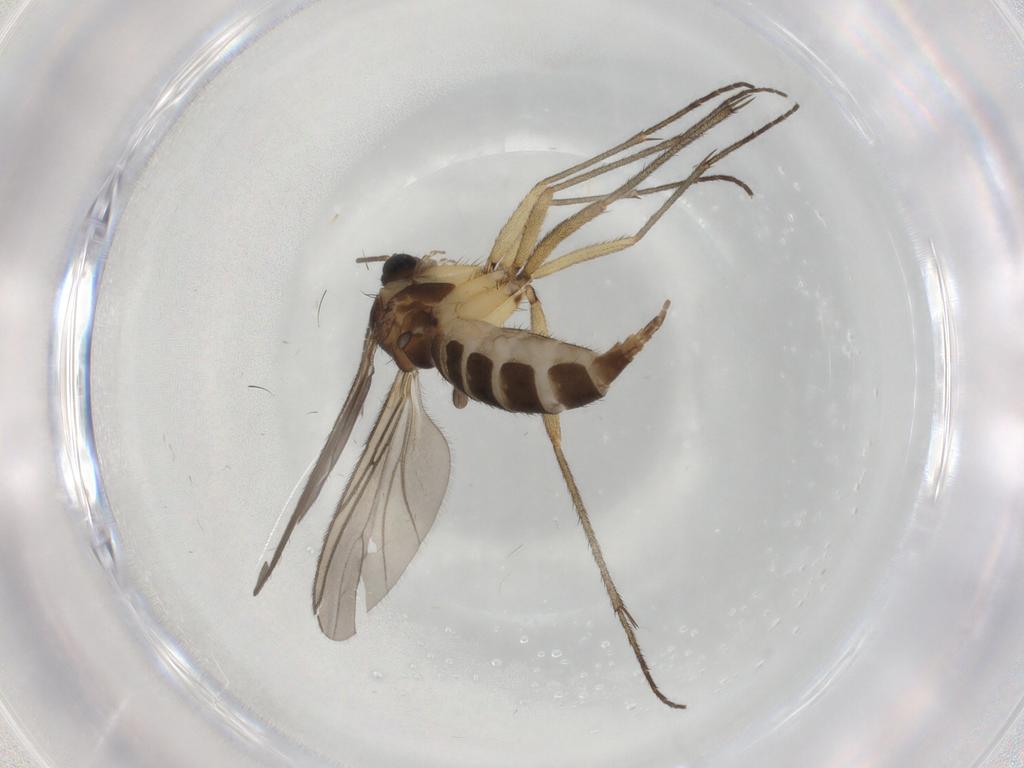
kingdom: Animalia
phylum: Arthropoda
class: Insecta
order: Diptera
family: Sciaridae
